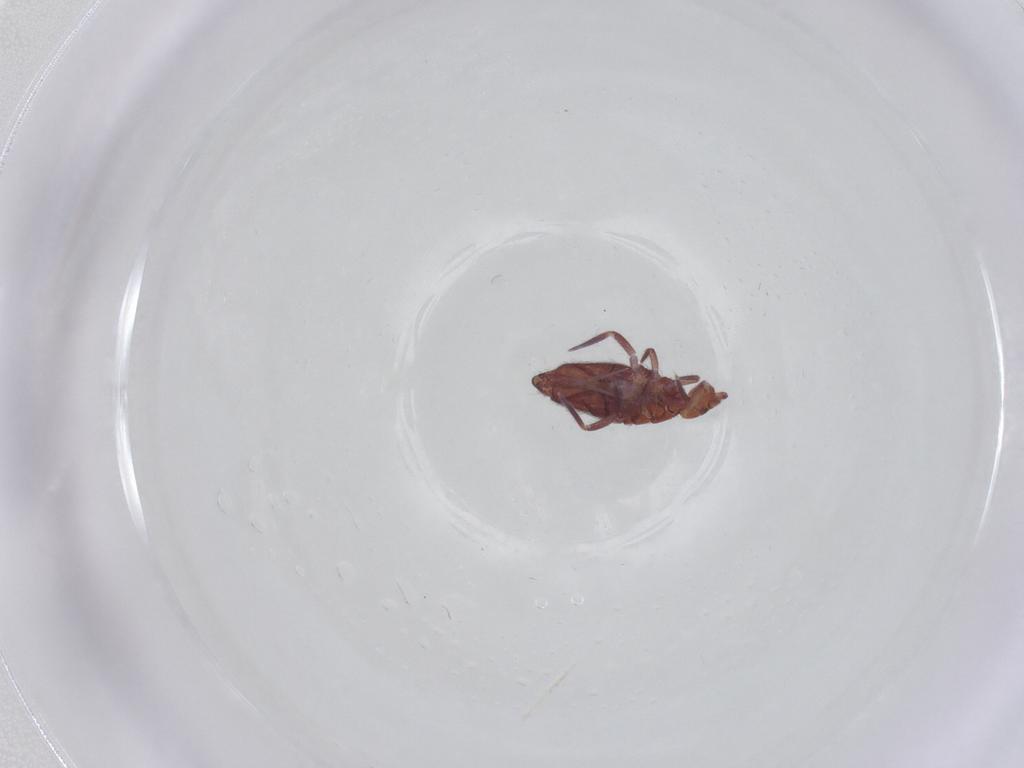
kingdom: Animalia
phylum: Arthropoda
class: Collembola
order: Entomobryomorpha
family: Entomobryidae
